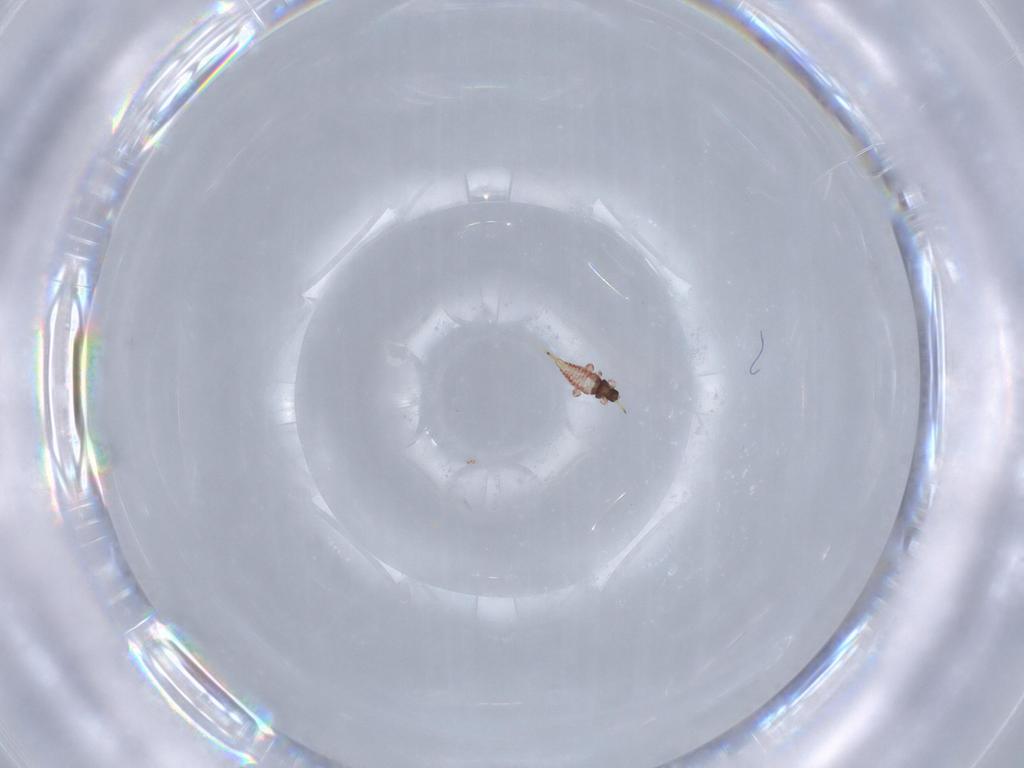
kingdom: Animalia
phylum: Arthropoda
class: Insecta
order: Thysanoptera
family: Phlaeothripidae
